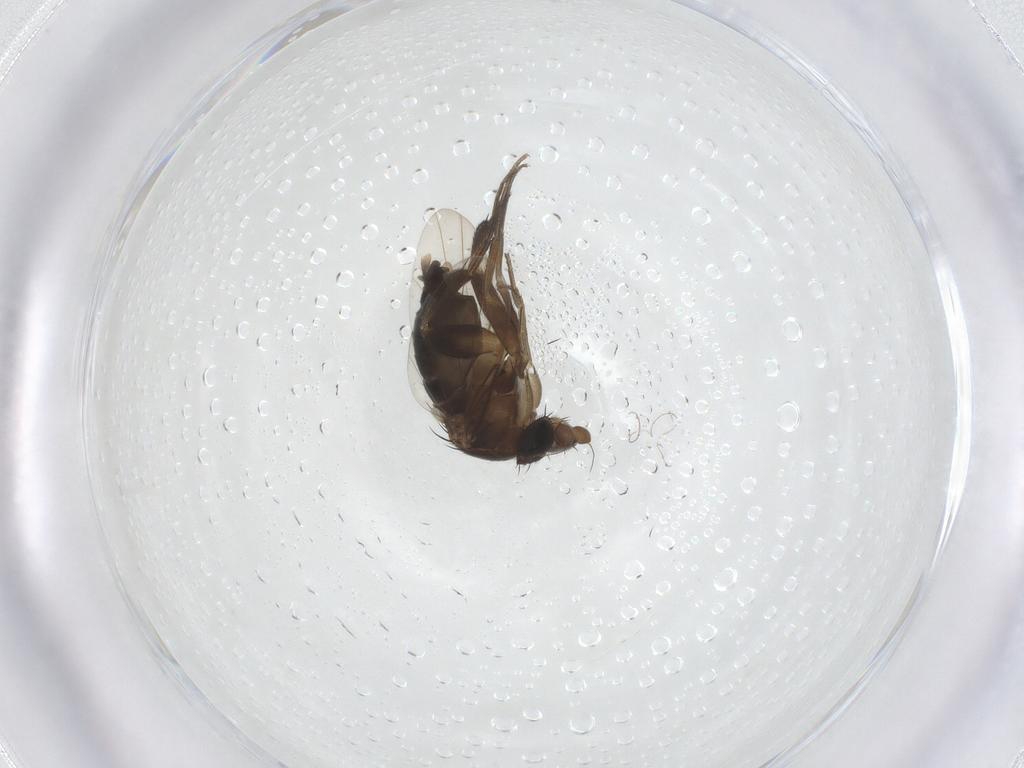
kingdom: Animalia
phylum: Arthropoda
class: Insecta
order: Diptera
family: Phoridae
